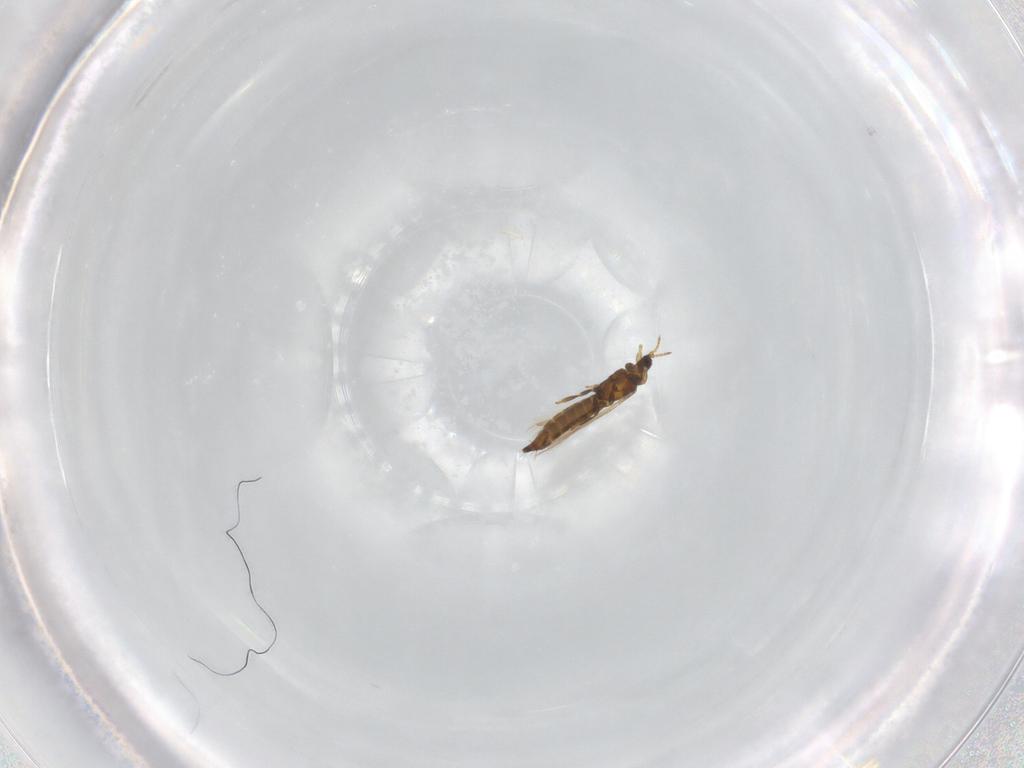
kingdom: Animalia
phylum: Arthropoda
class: Insecta
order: Thysanoptera
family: Thripidae
